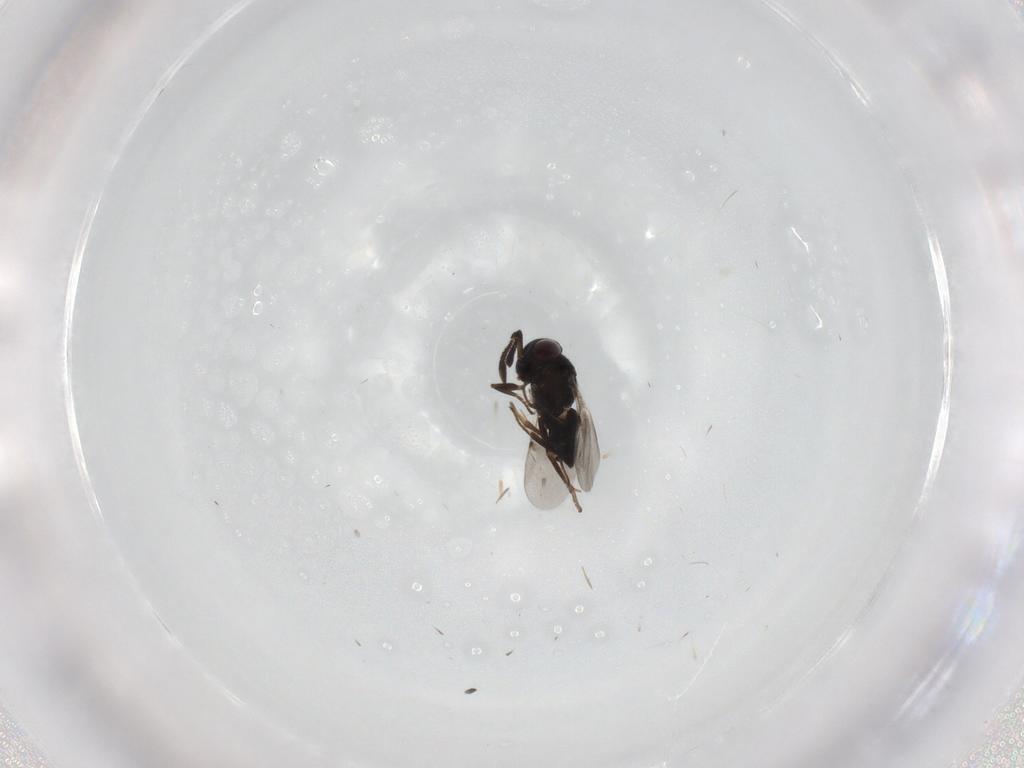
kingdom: Animalia
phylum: Arthropoda
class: Insecta
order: Hymenoptera
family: Encyrtidae
